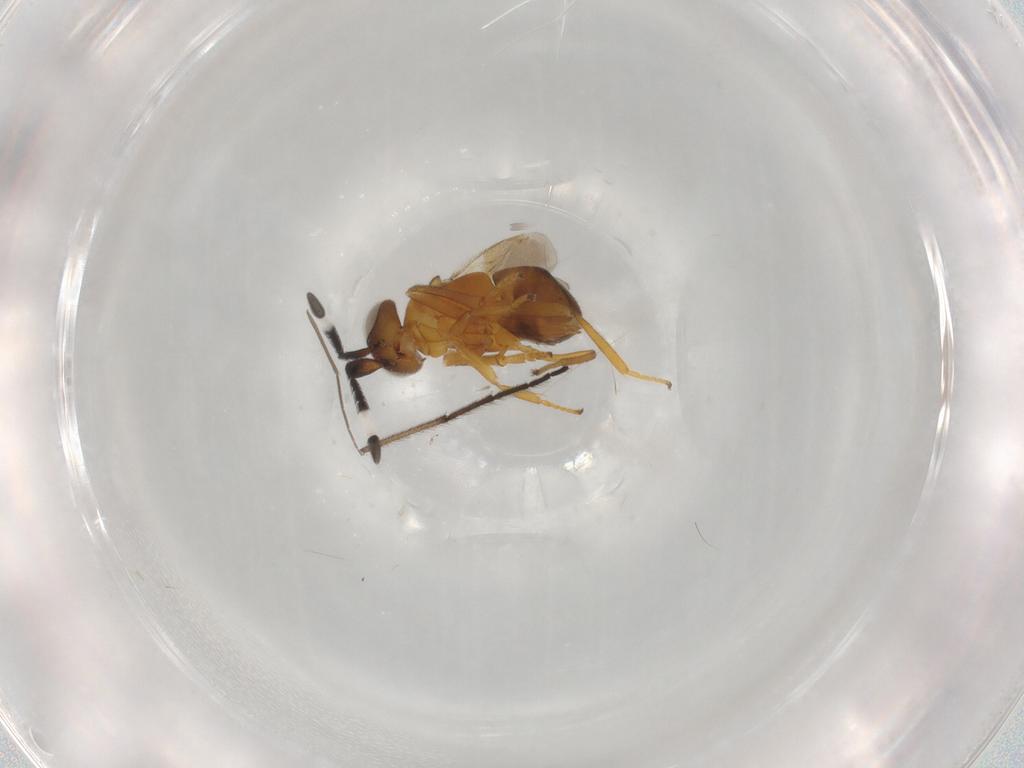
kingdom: Animalia
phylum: Arthropoda
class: Insecta
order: Hymenoptera
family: Encyrtidae
